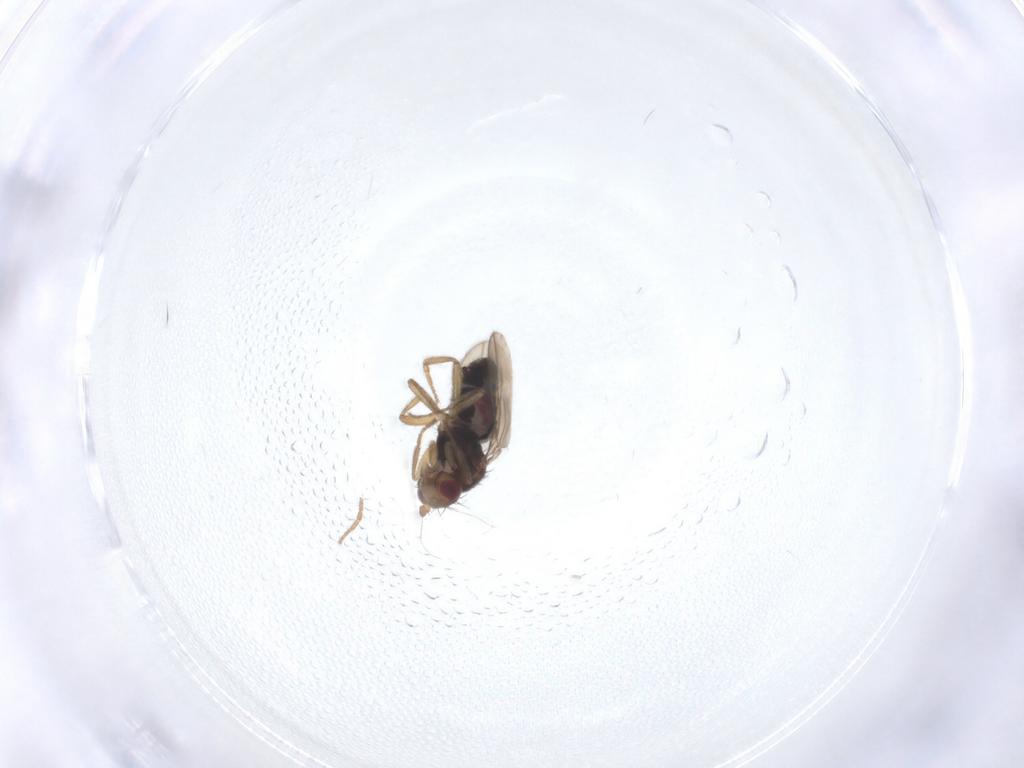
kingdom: Animalia
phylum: Arthropoda
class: Insecta
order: Diptera
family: Sphaeroceridae
